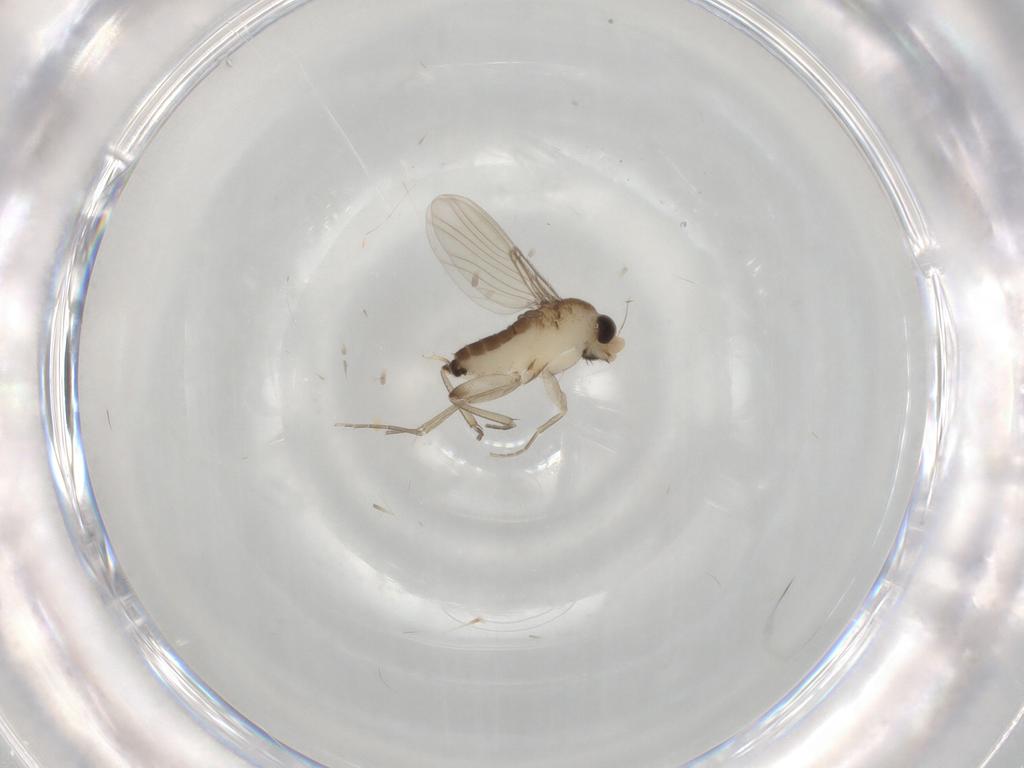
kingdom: Animalia
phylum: Arthropoda
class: Insecta
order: Diptera
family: Phoridae
